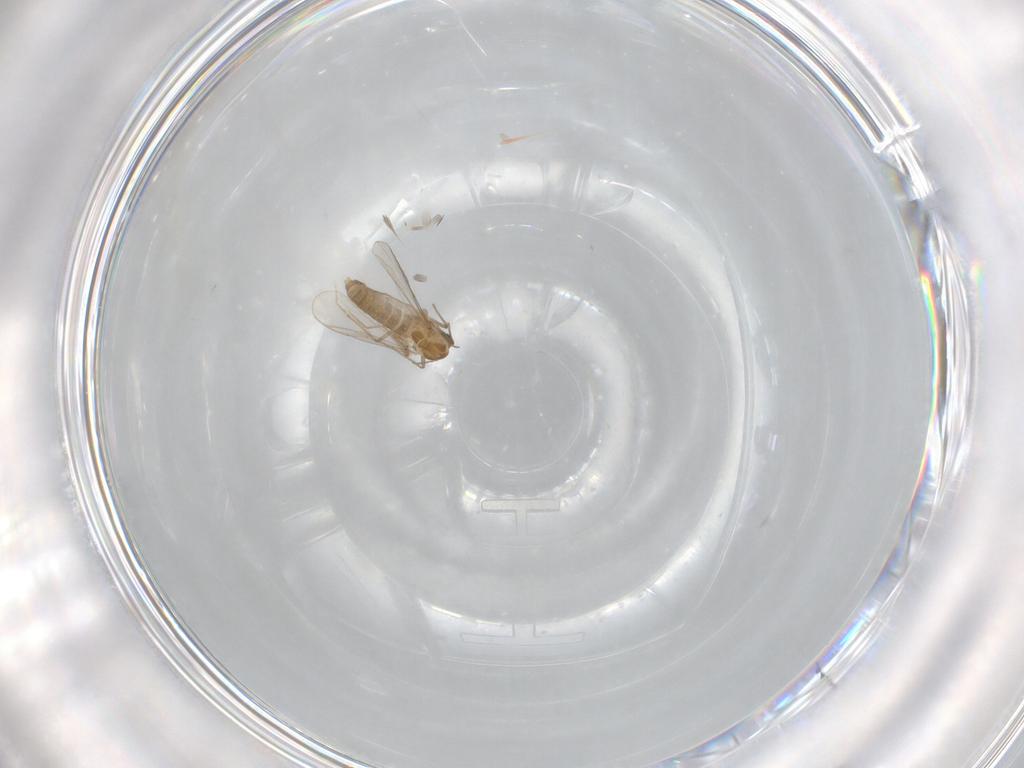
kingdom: Animalia
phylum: Arthropoda
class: Insecta
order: Diptera
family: Chironomidae
